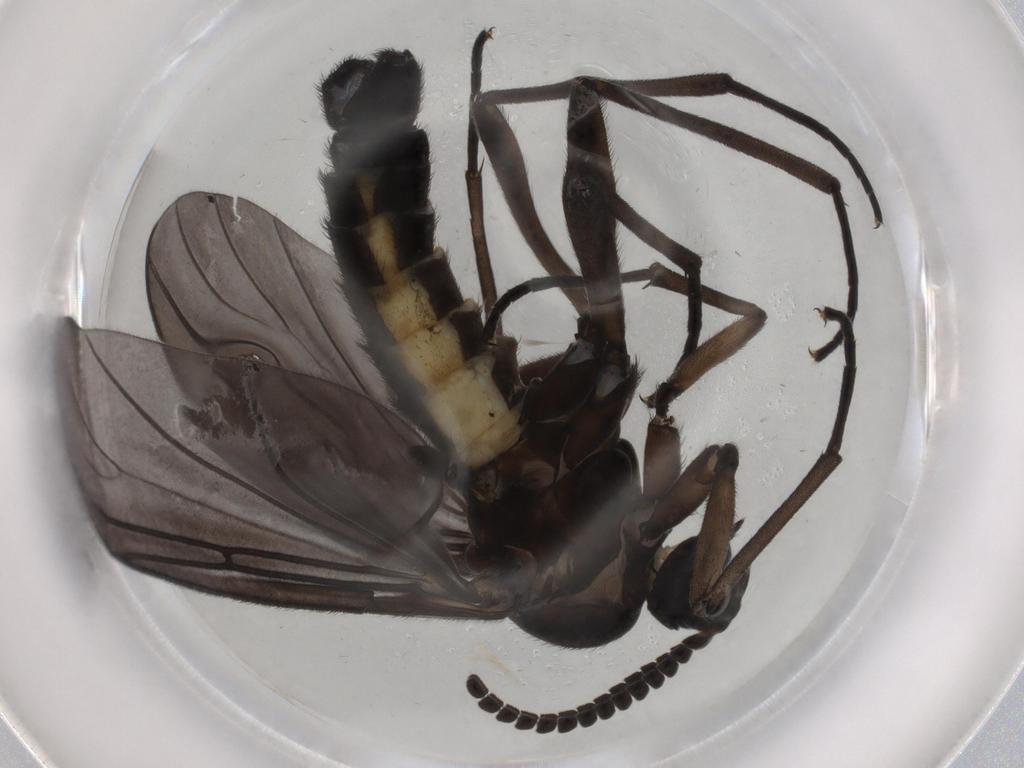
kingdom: Animalia
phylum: Arthropoda
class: Insecta
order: Diptera
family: Sciaridae
